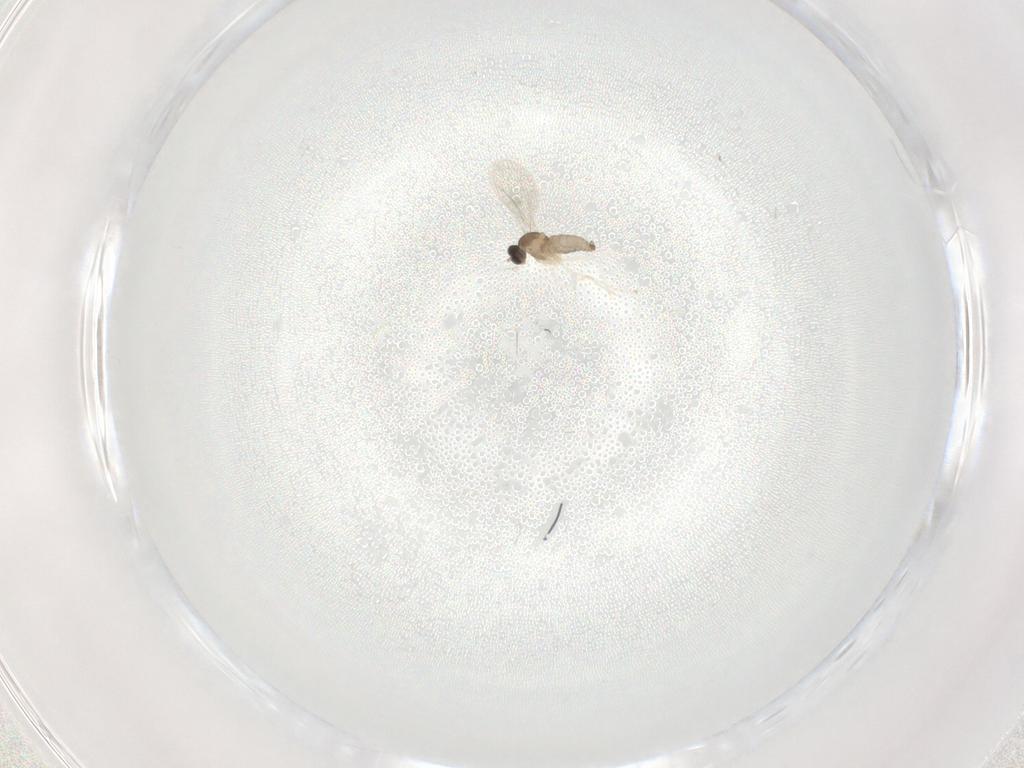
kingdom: Animalia
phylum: Arthropoda
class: Insecta
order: Diptera
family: Cecidomyiidae
